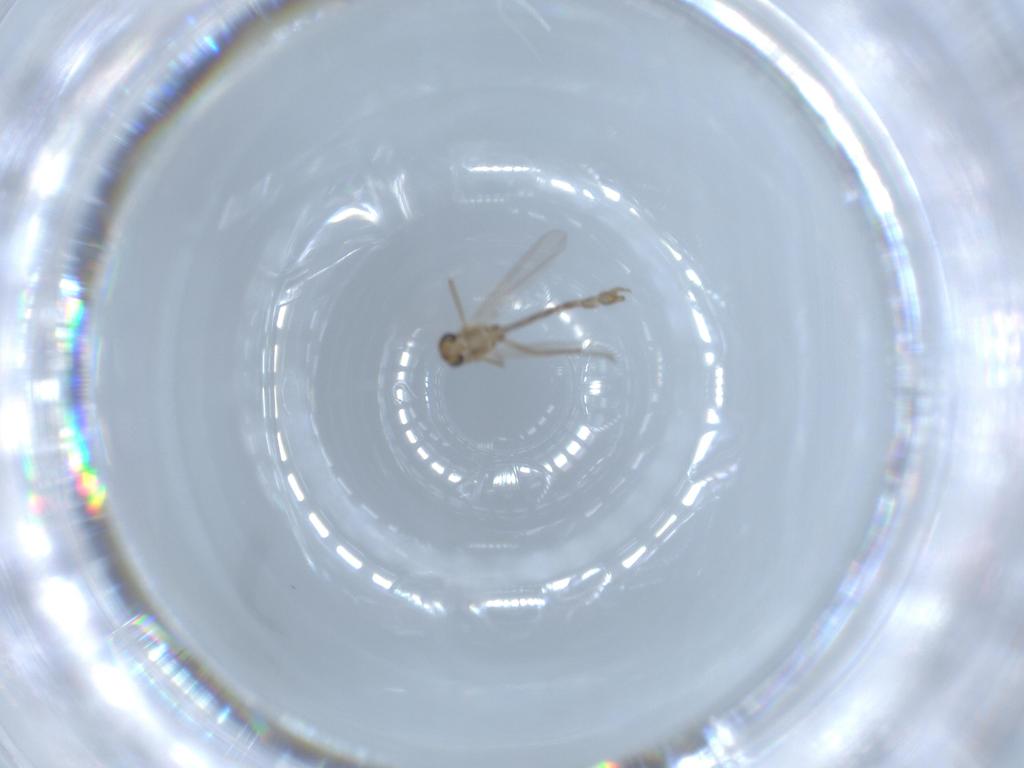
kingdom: Animalia
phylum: Arthropoda
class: Insecta
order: Diptera
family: Chironomidae
